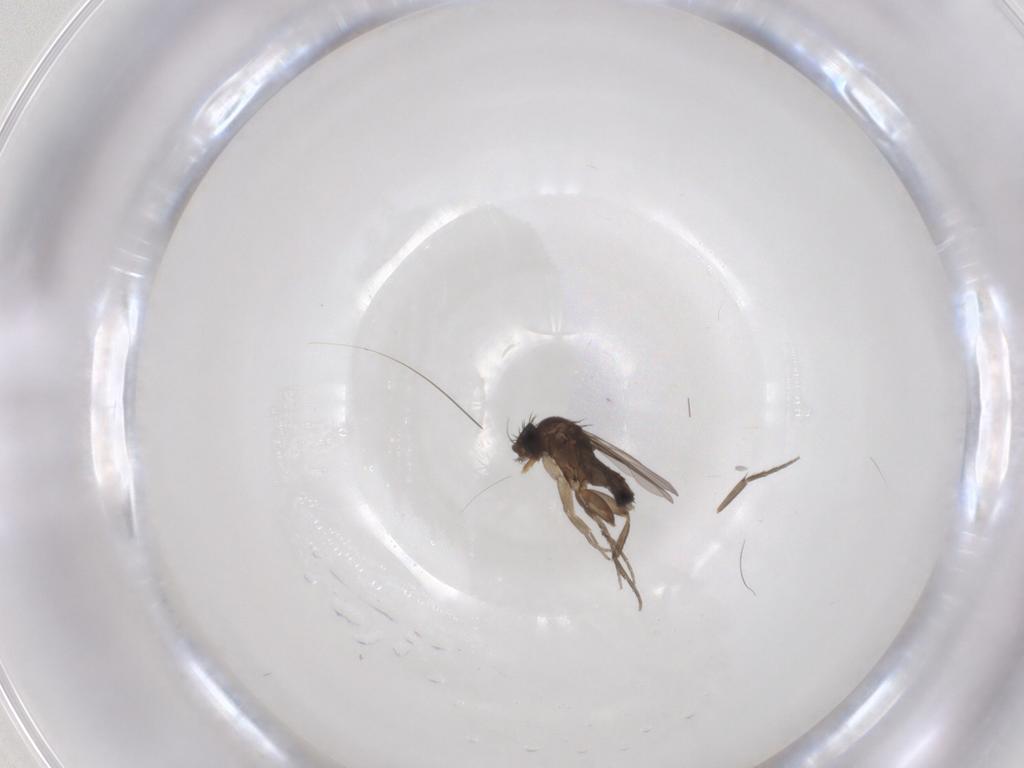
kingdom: Animalia
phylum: Arthropoda
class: Insecta
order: Diptera
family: Phoridae
